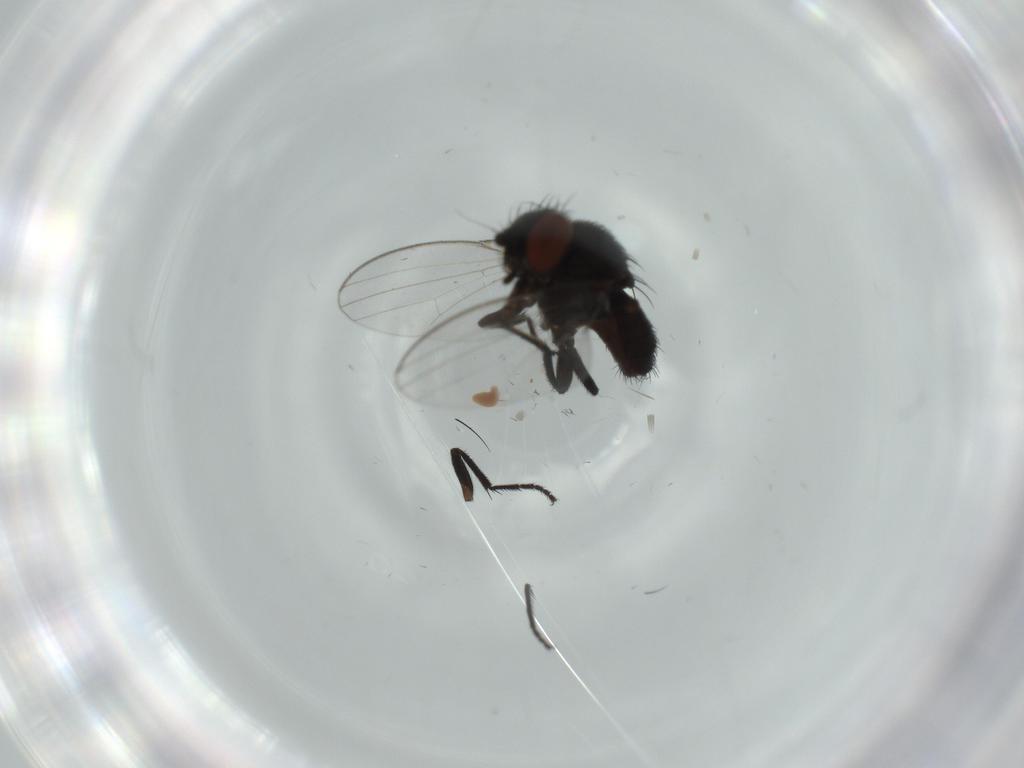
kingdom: Animalia
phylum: Arthropoda
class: Insecta
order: Diptera
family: Milichiidae
